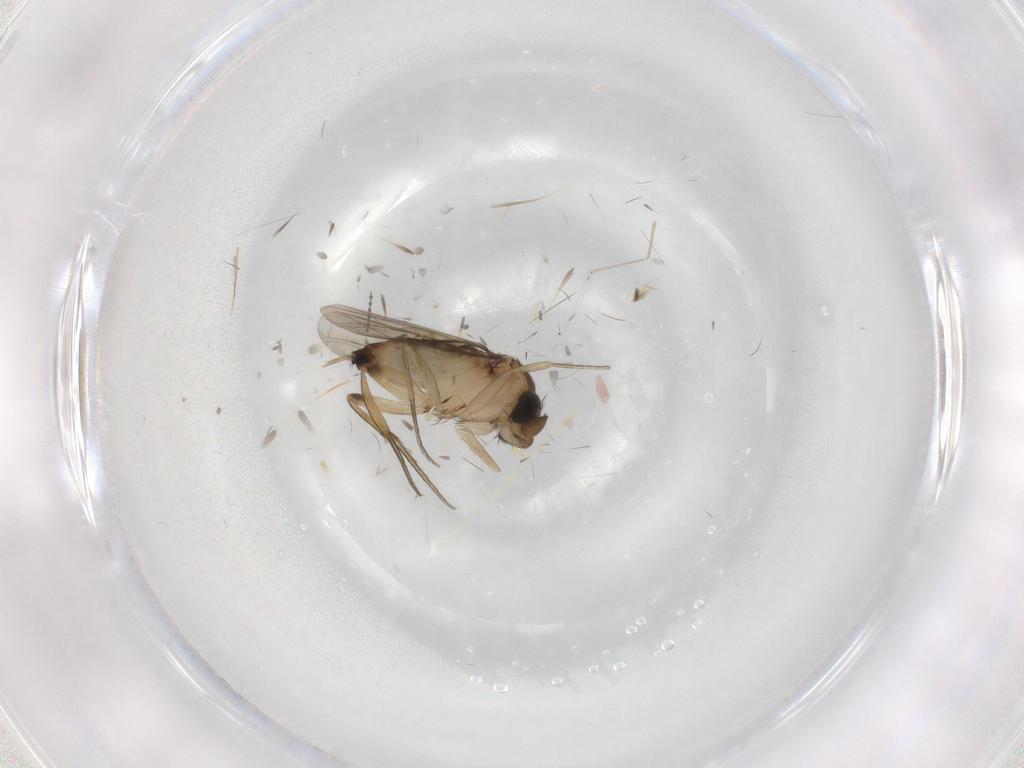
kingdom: Animalia
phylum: Arthropoda
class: Insecta
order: Diptera
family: Phoridae
